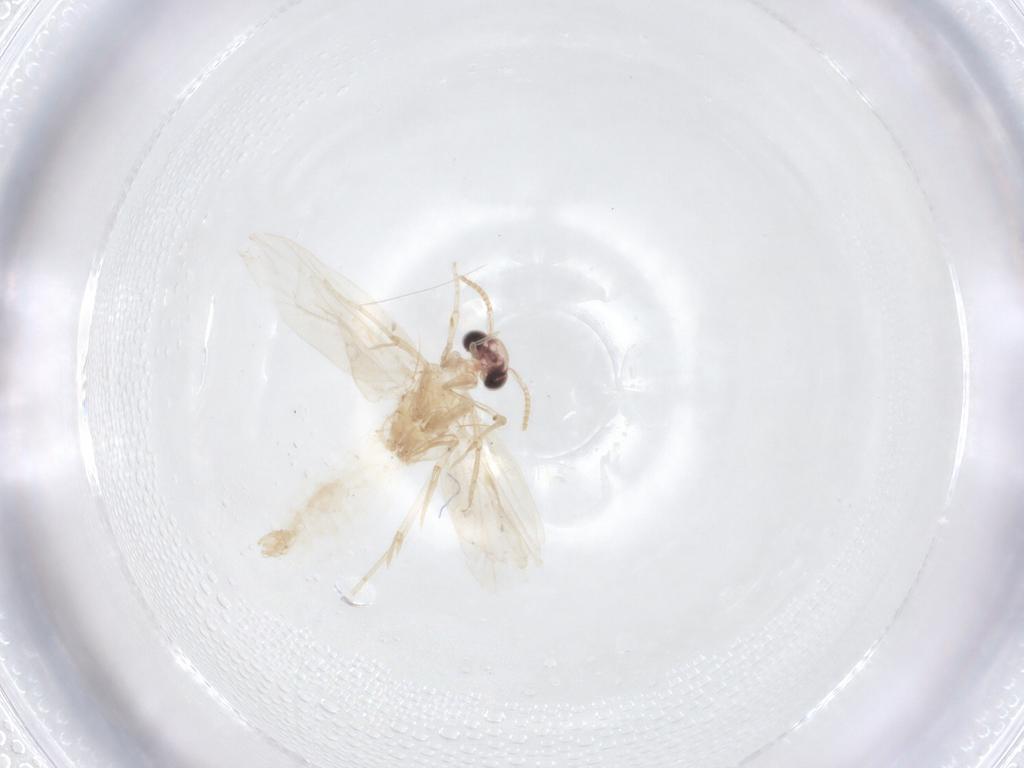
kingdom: Animalia
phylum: Arthropoda
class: Insecta
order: Lepidoptera
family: Psychidae
